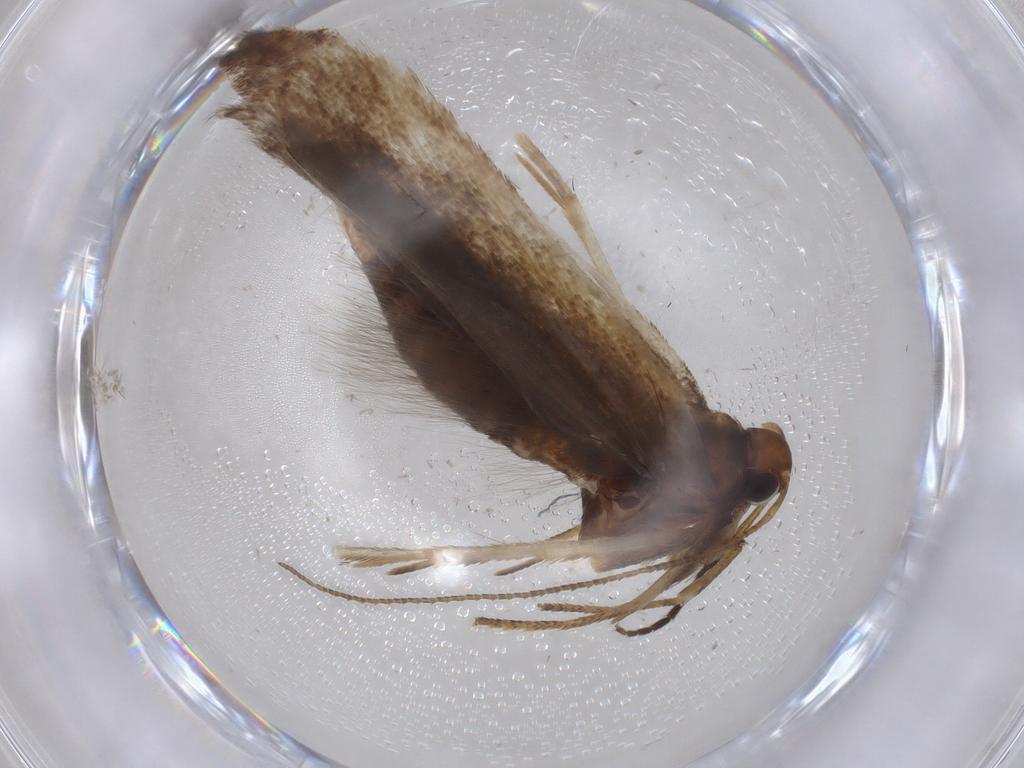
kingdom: Animalia
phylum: Arthropoda
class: Insecta
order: Lepidoptera
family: Gelechiidae
